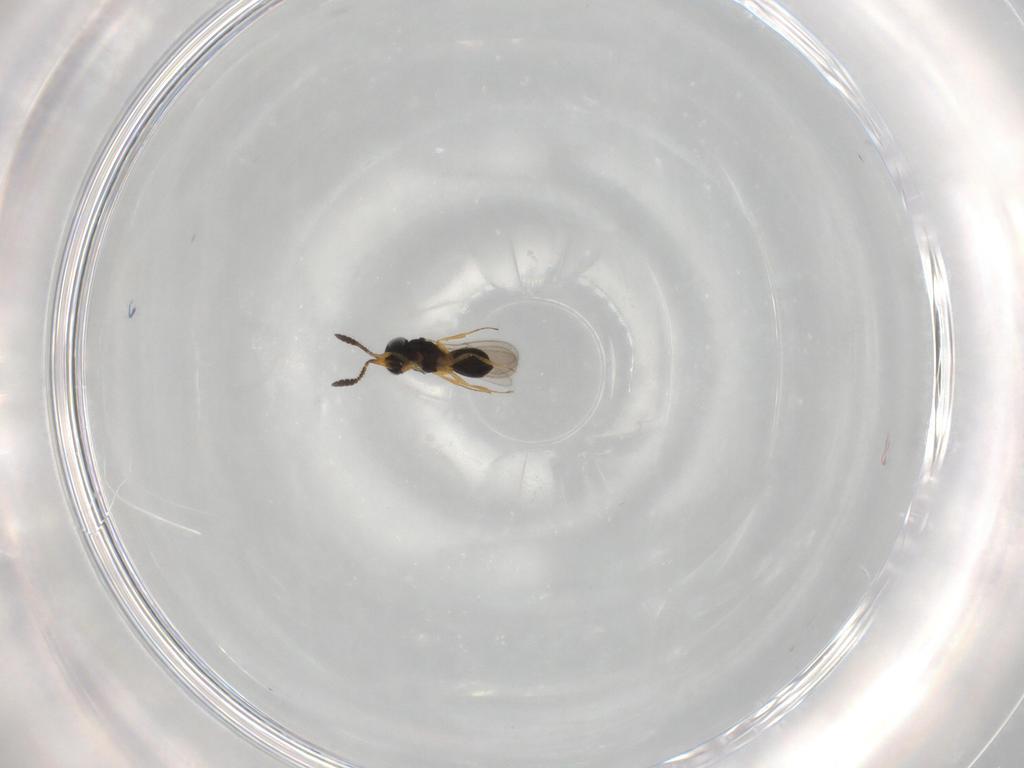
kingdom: Animalia
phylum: Arthropoda
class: Insecta
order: Hymenoptera
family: Scelionidae
